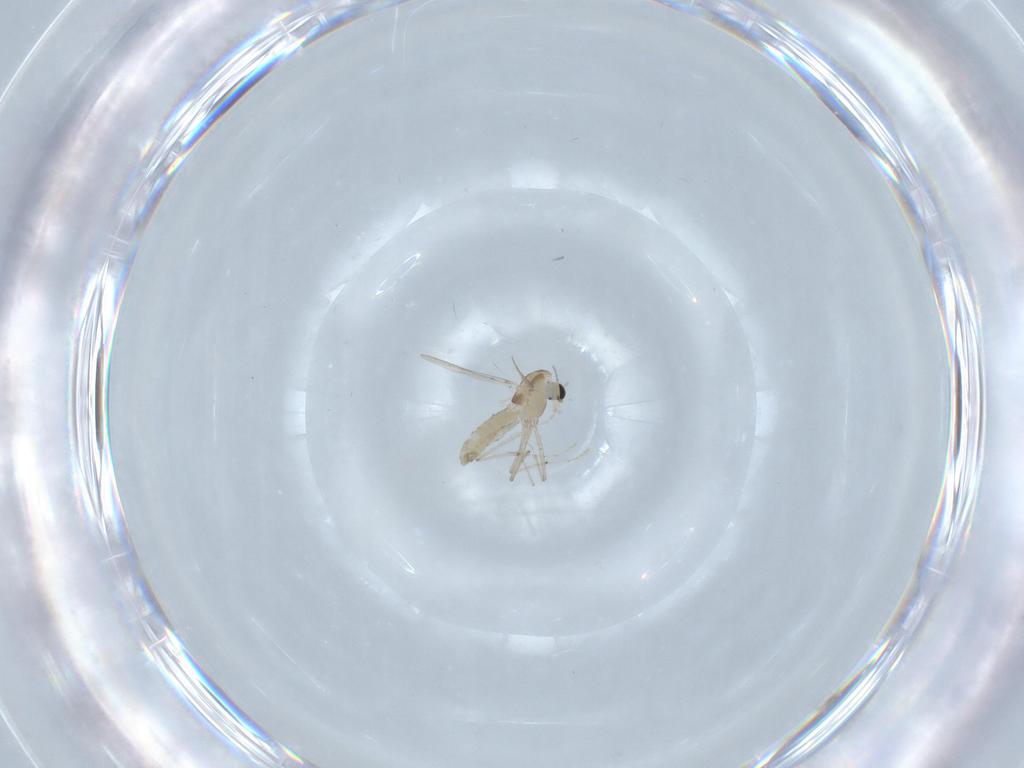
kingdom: Animalia
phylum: Arthropoda
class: Insecta
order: Diptera
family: Chironomidae
